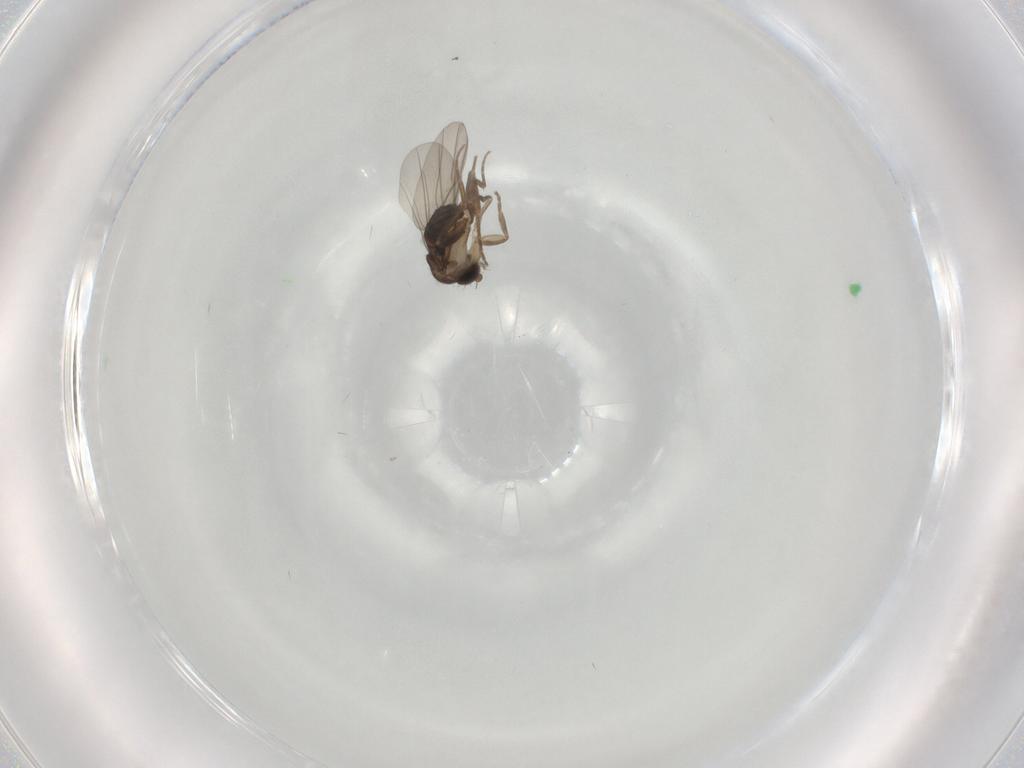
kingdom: Animalia
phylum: Arthropoda
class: Insecta
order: Diptera
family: Phoridae
